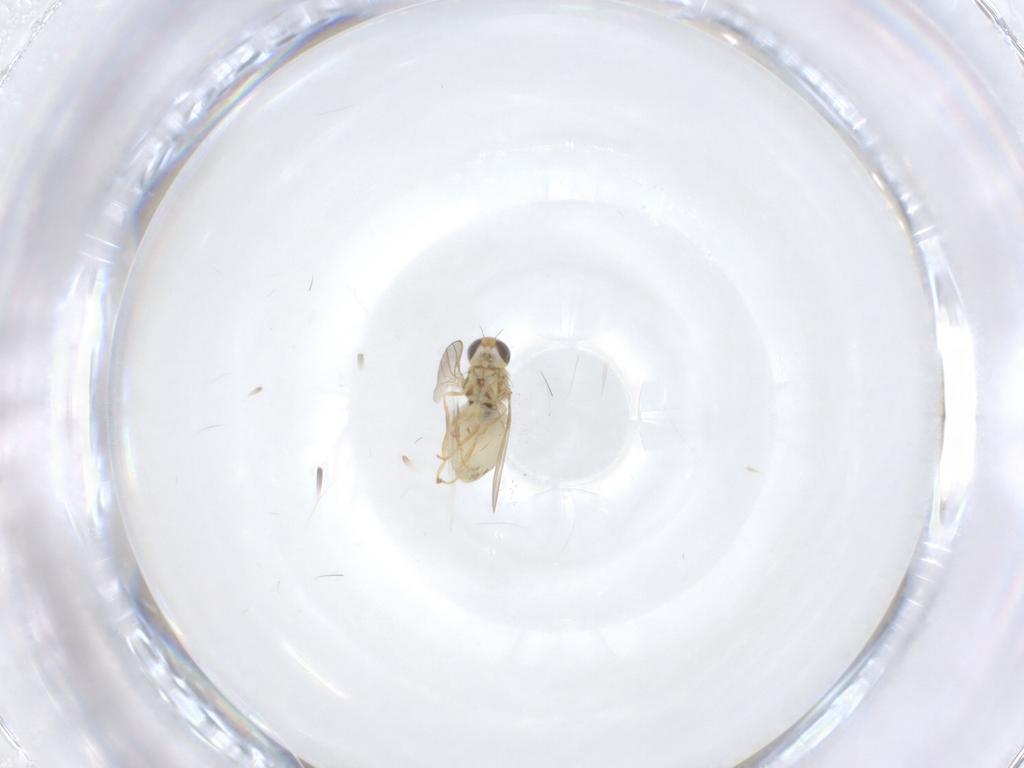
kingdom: Animalia
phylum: Arthropoda
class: Insecta
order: Diptera
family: Chyromyidae
